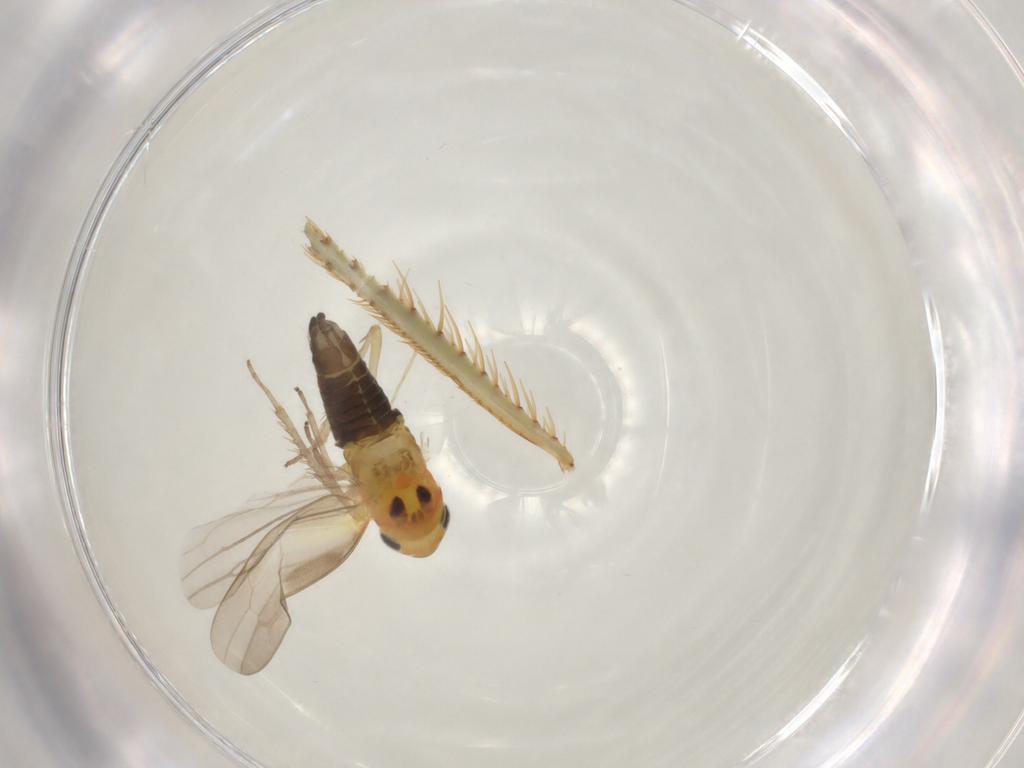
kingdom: Animalia
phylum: Arthropoda
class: Insecta
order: Hemiptera
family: Cicadellidae
